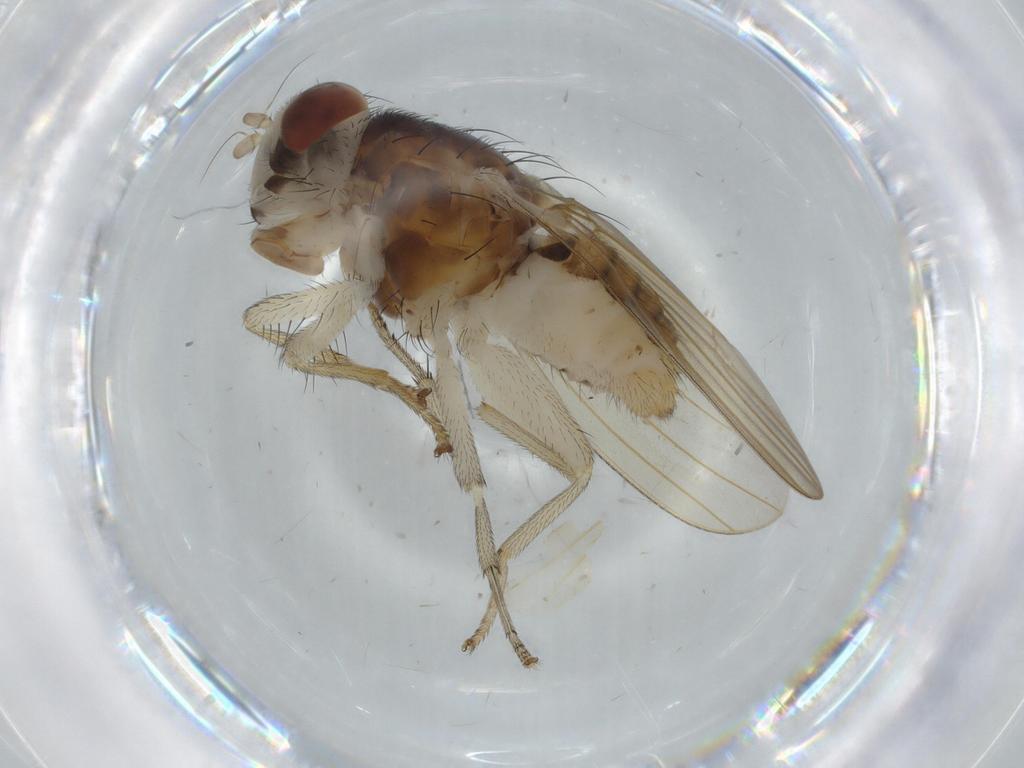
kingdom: Animalia
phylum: Arthropoda
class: Insecta
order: Diptera
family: Lauxaniidae
